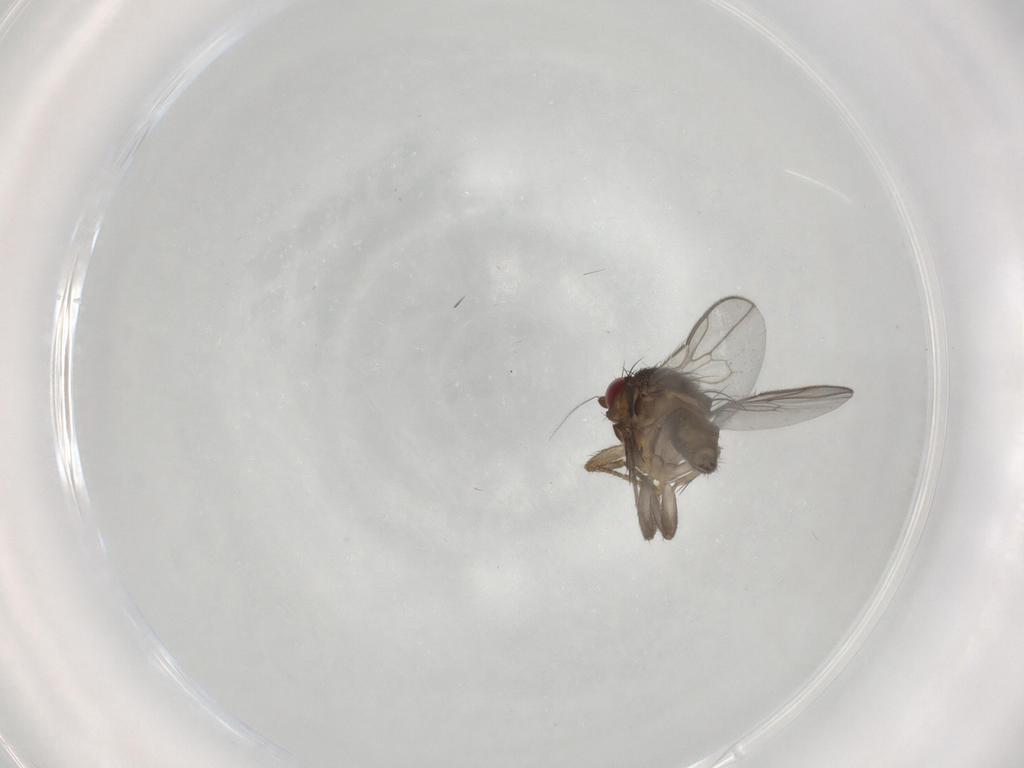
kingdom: Animalia
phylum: Arthropoda
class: Insecta
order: Diptera
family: Sphaeroceridae
